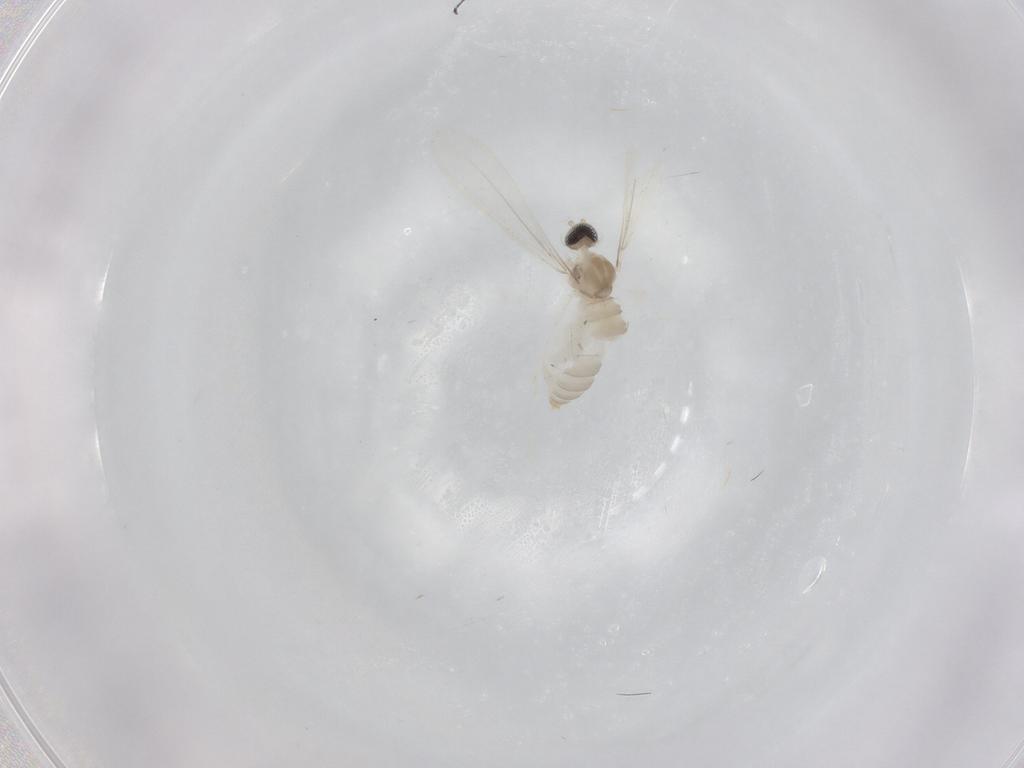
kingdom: Animalia
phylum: Arthropoda
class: Insecta
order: Diptera
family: Cecidomyiidae
